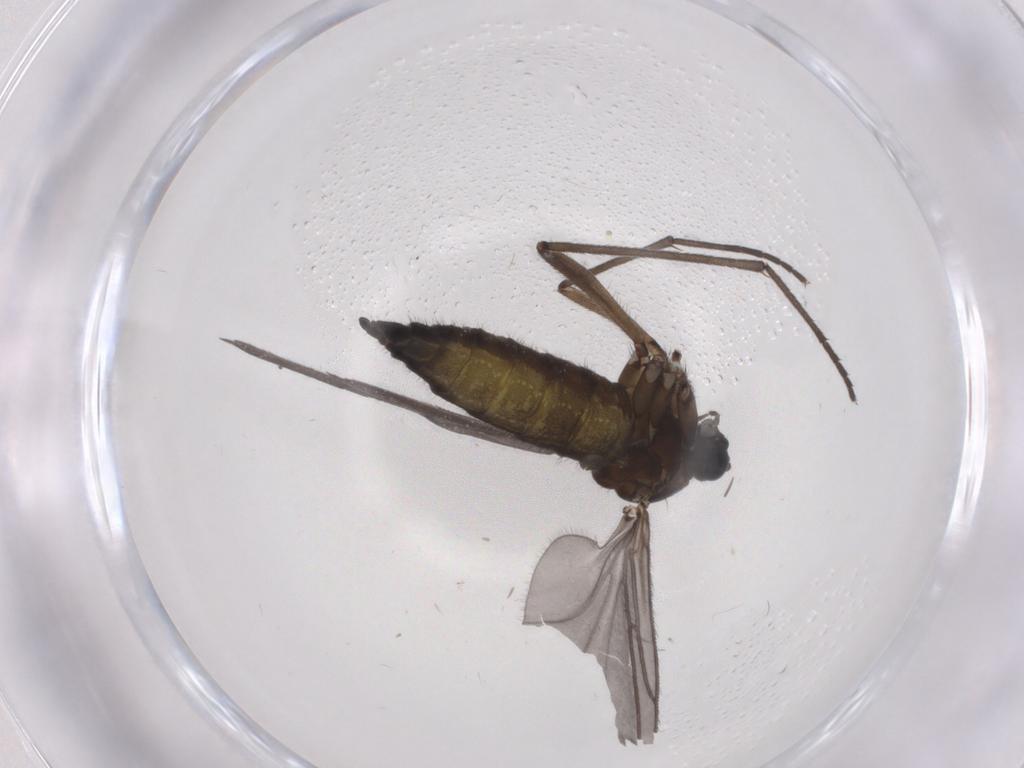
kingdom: Animalia
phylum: Arthropoda
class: Insecta
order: Diptera
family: Sciaridae
